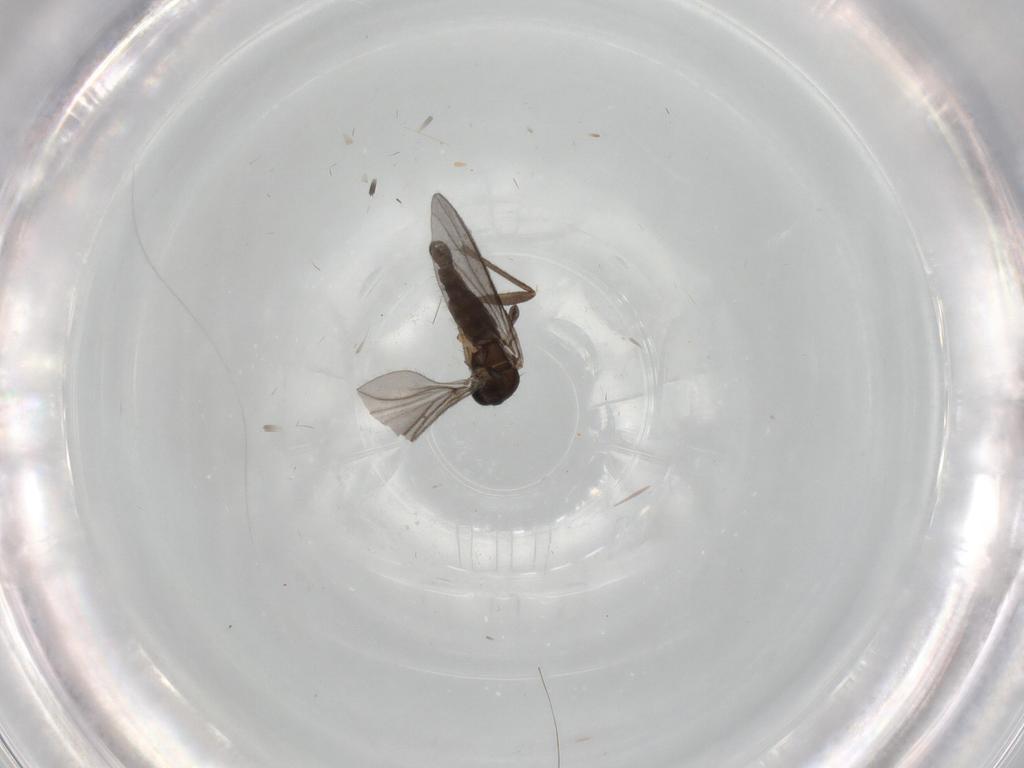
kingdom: Animalia
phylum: Arthropoda
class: Insecta
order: Diptera
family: Sciaridae
